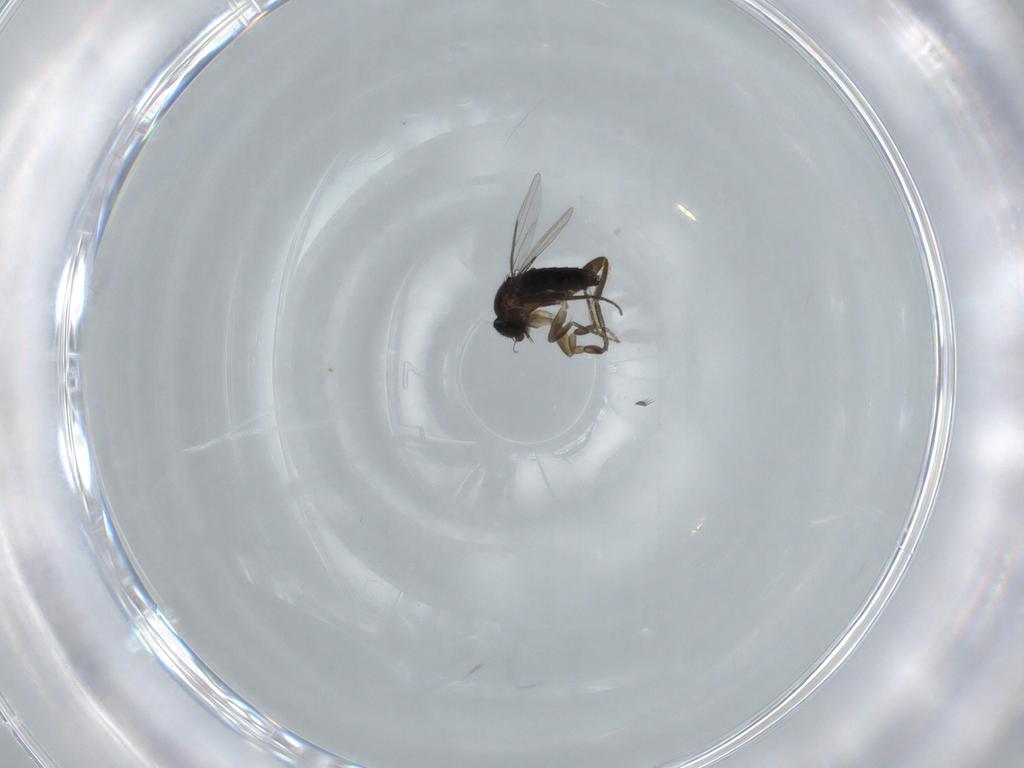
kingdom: Animalia
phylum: Arthropoda
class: Insecta
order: Diptera
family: Phoridae
